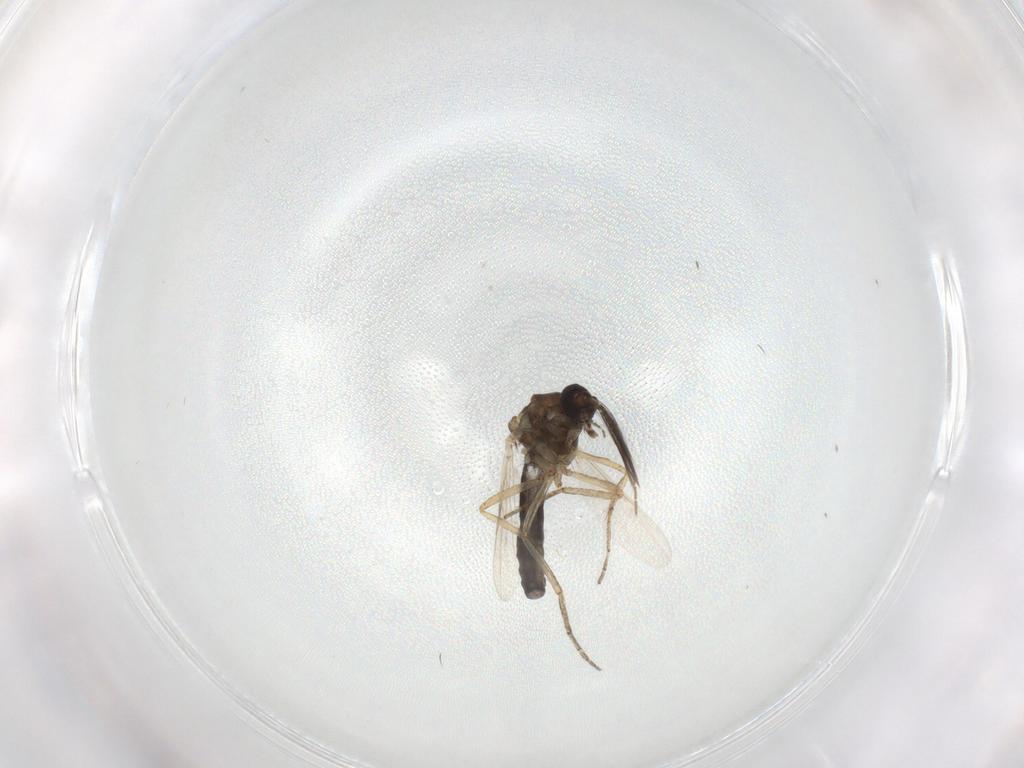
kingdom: Animalia
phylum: Arthropoda
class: Insecta
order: Diptera
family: Ceratopogonidae
